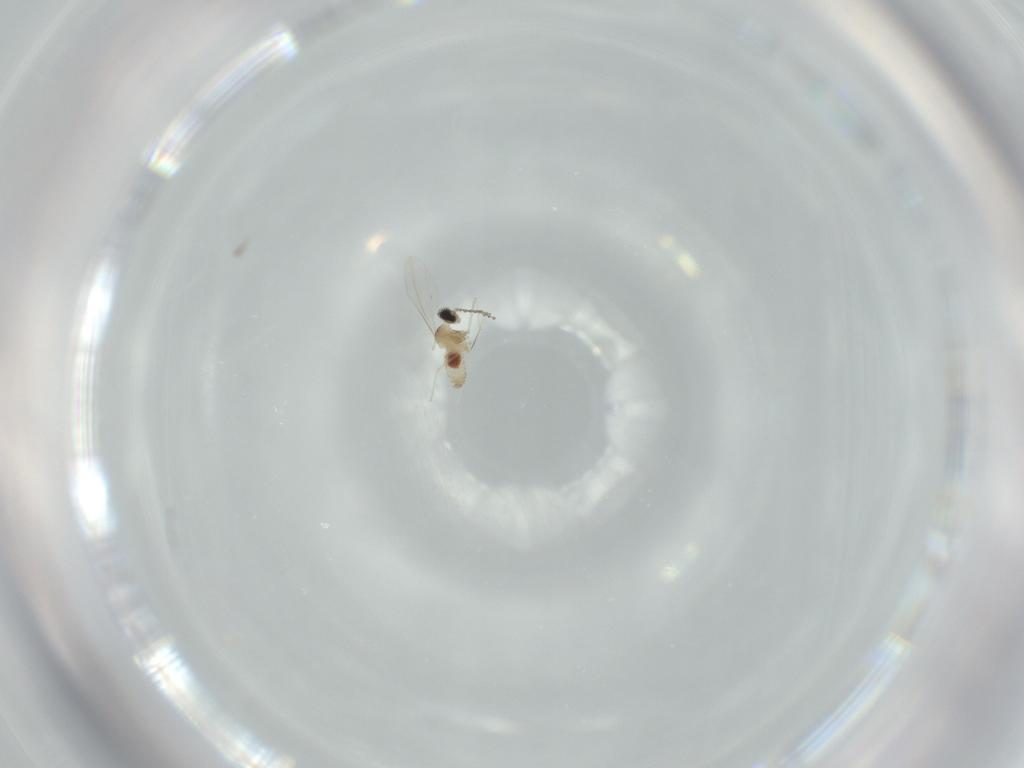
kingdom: Animalia
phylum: Arthropoda
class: Insecta
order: Diptera
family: Cecidomyiidae
